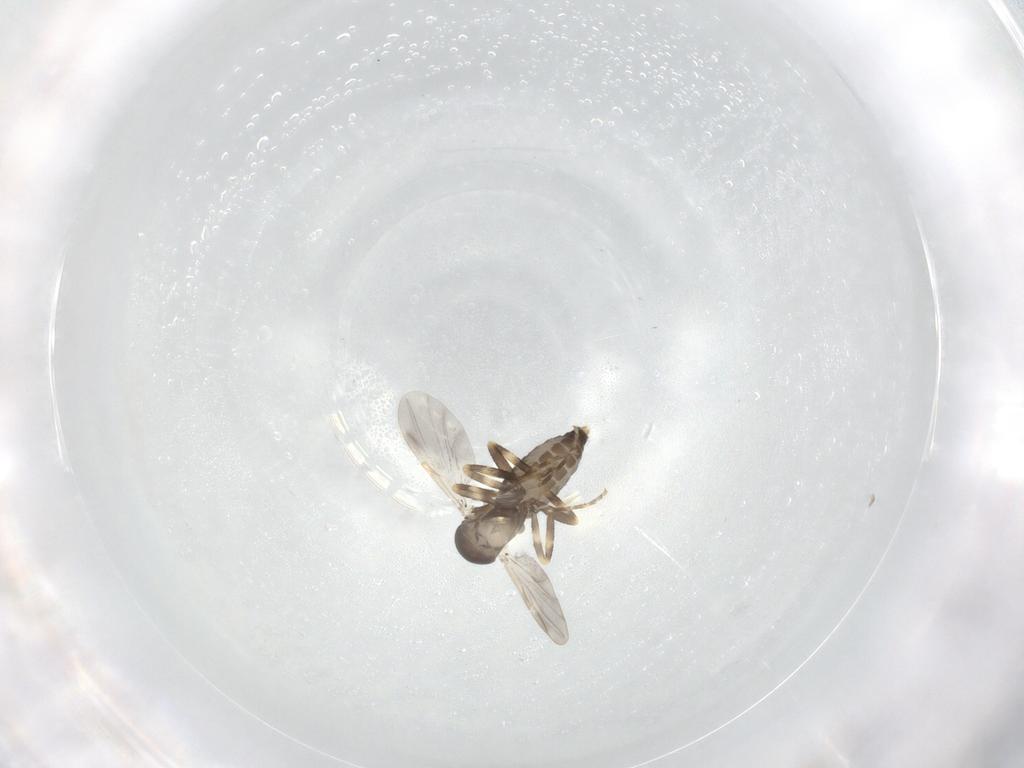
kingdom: Animalia
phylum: Arthropoda
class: Insecta
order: Diptera
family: Ceratopogonidae
